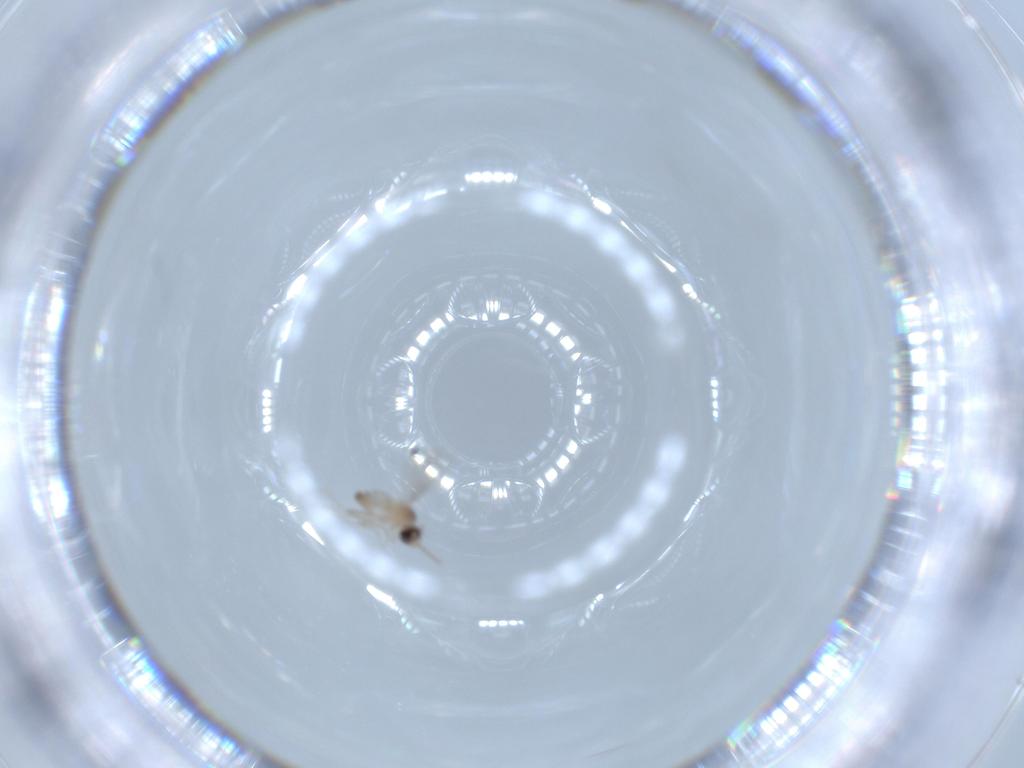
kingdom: Animalia
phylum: Arthropoda
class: Insecta
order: Diptera
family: Cecidomyiidae
